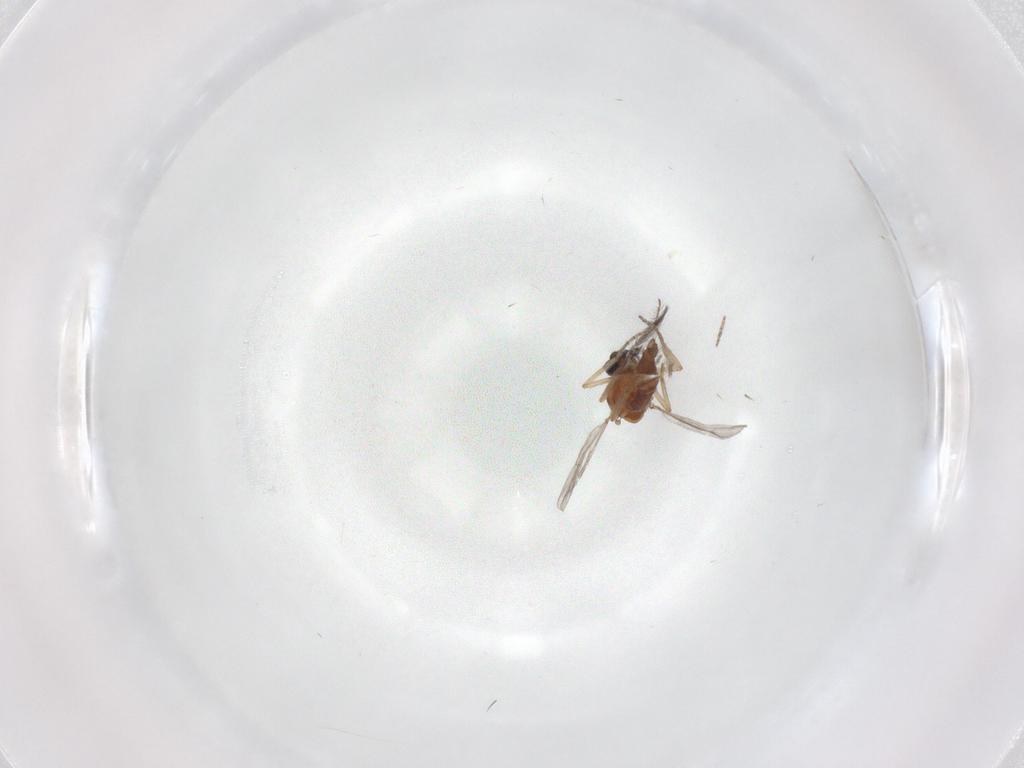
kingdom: Animalia
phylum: Arthropoda
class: Insecta
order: Diptera
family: Ceratopogonidae
